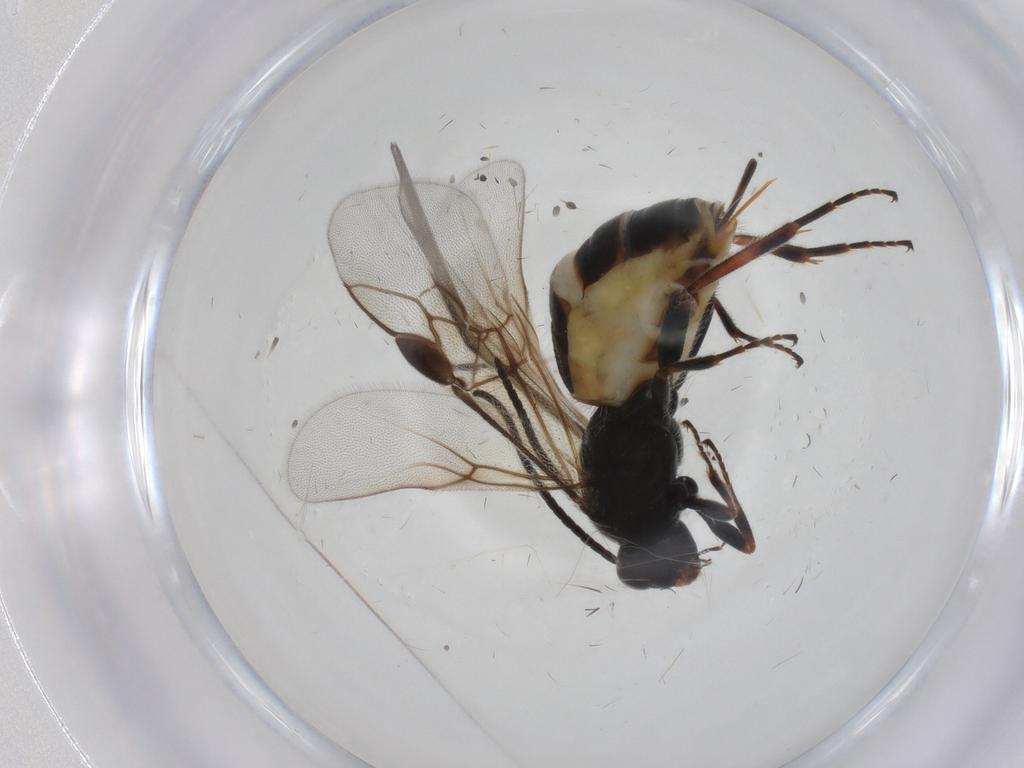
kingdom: Animalia
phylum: Arthropoda
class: Insecta
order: Hymenoptera
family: Braconidae
